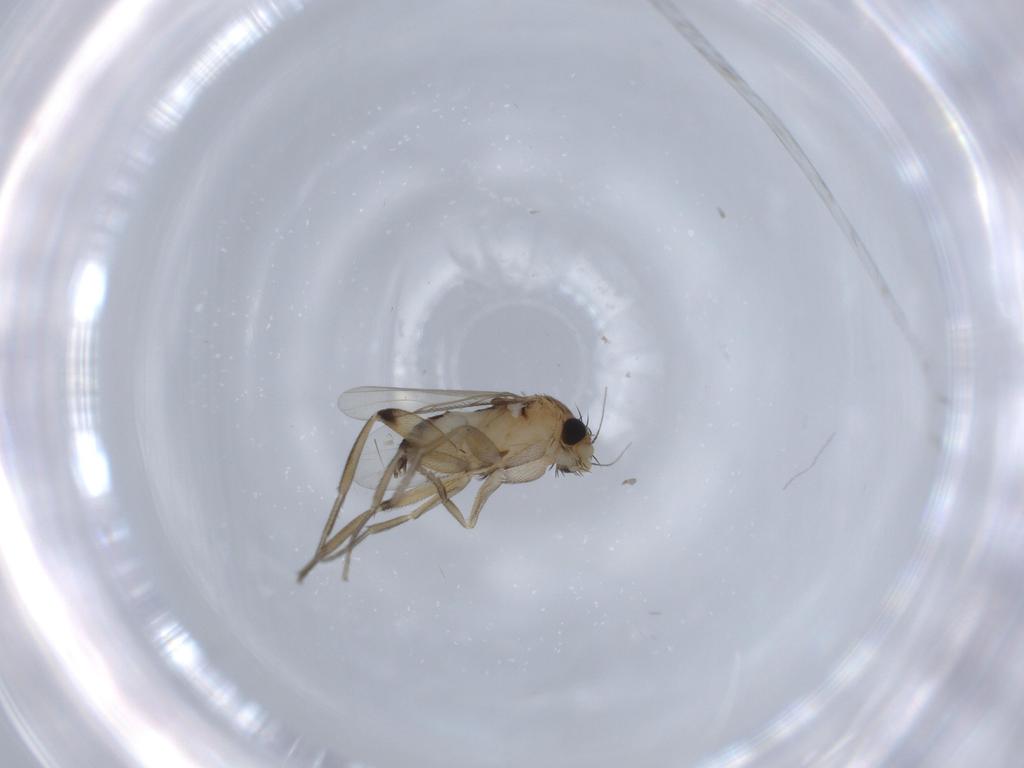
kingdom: Animalia
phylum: Arthropoda
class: Insecta
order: Diptera
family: Phoridae
